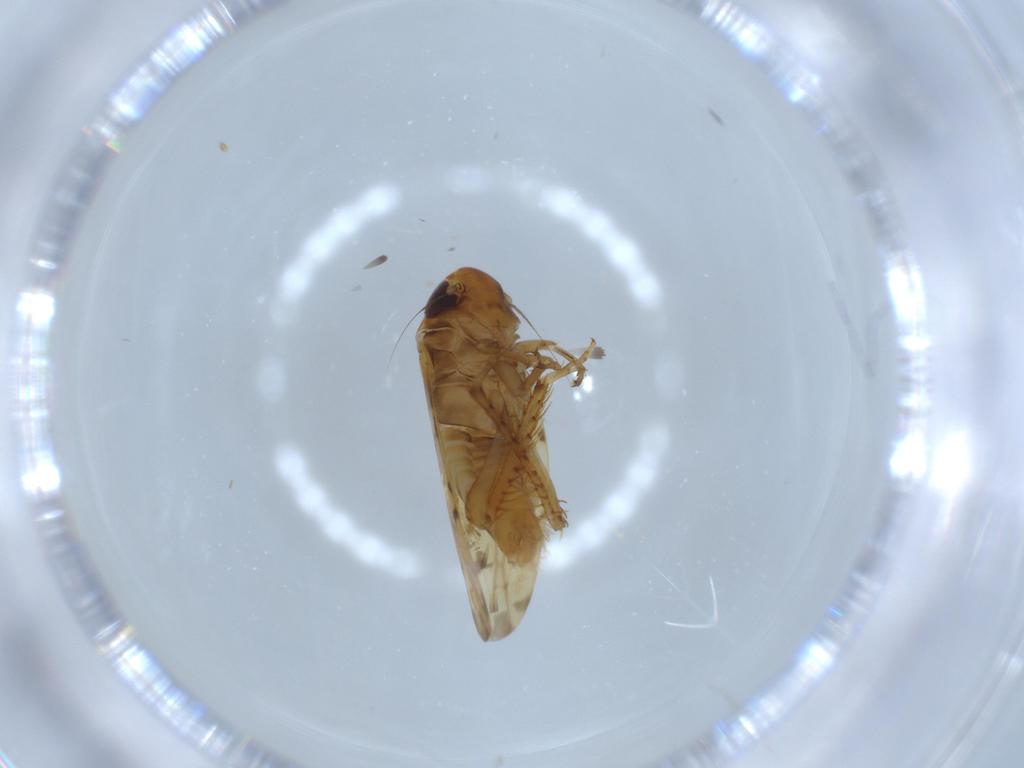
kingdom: Animalia
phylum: Arthropoda
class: Insecta
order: Hemiptera
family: Cicadellidae
